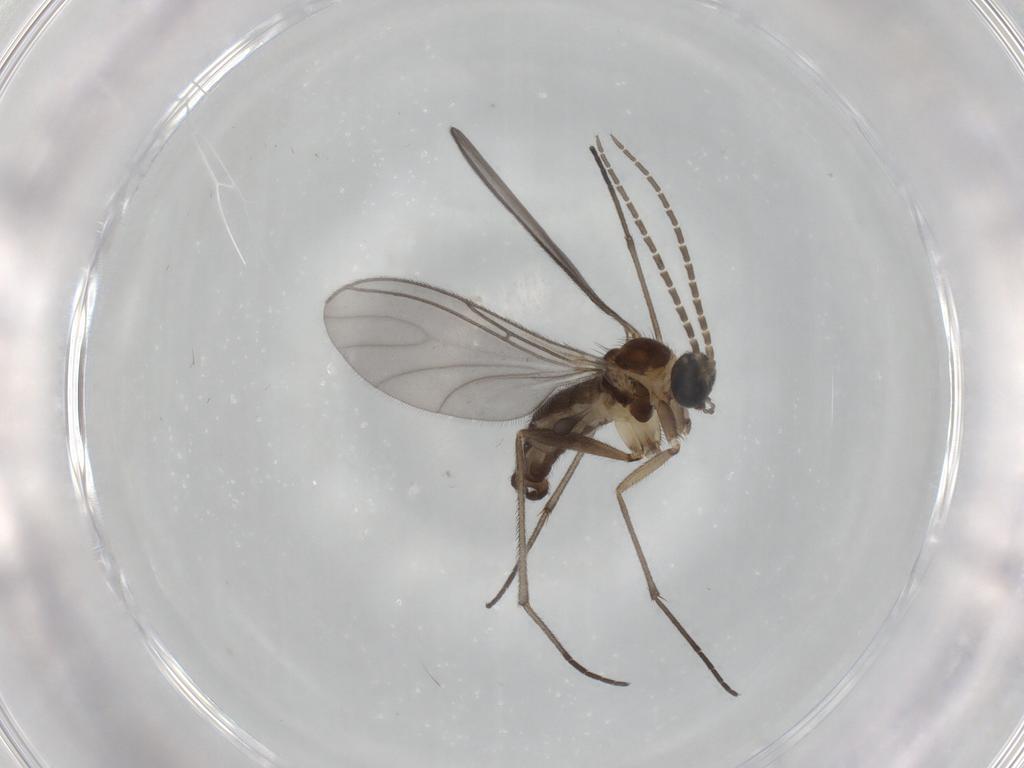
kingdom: Animalia
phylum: Arthropoda
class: Insecta
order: Diptera
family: Sciaridae
